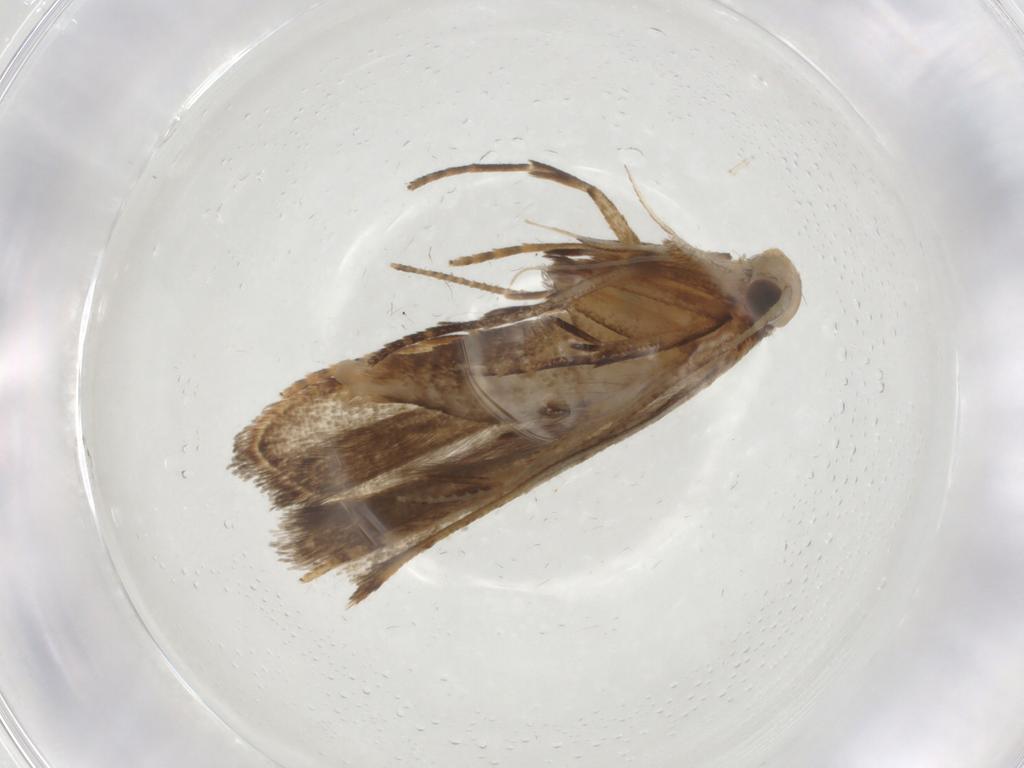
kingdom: Animalia
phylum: Arthropoda
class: Insecta
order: Lepidoptera
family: Gelechiidae
